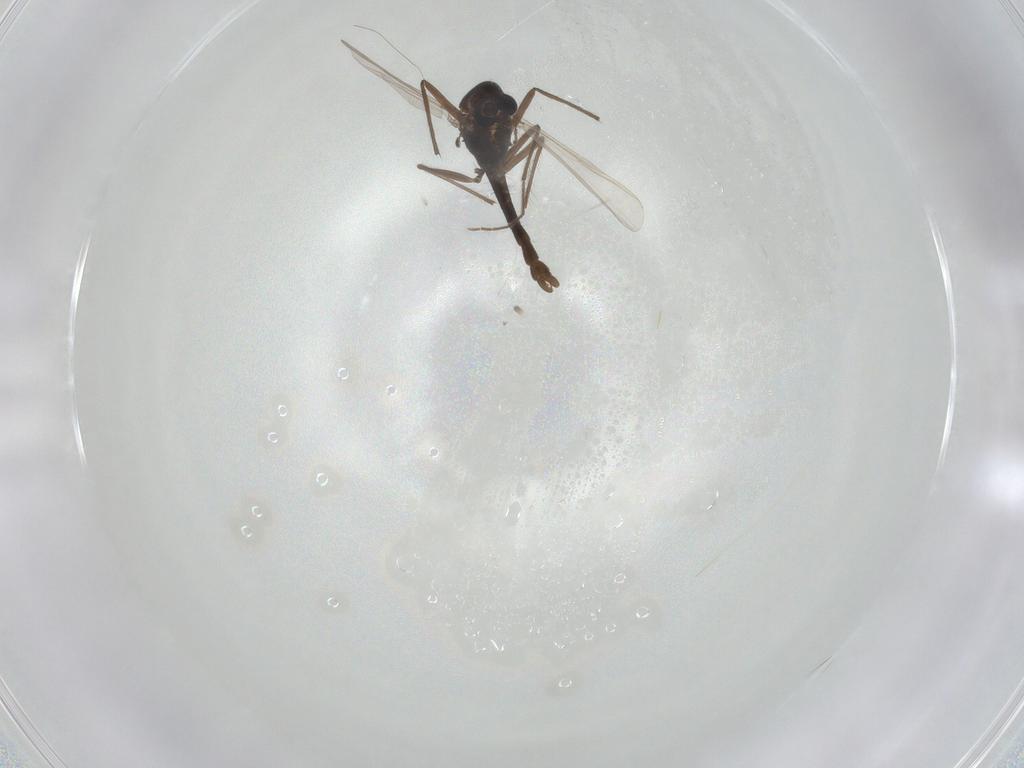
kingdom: Animalia
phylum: Arthropoda
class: Insecta
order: Diptera
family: Chironomidae
